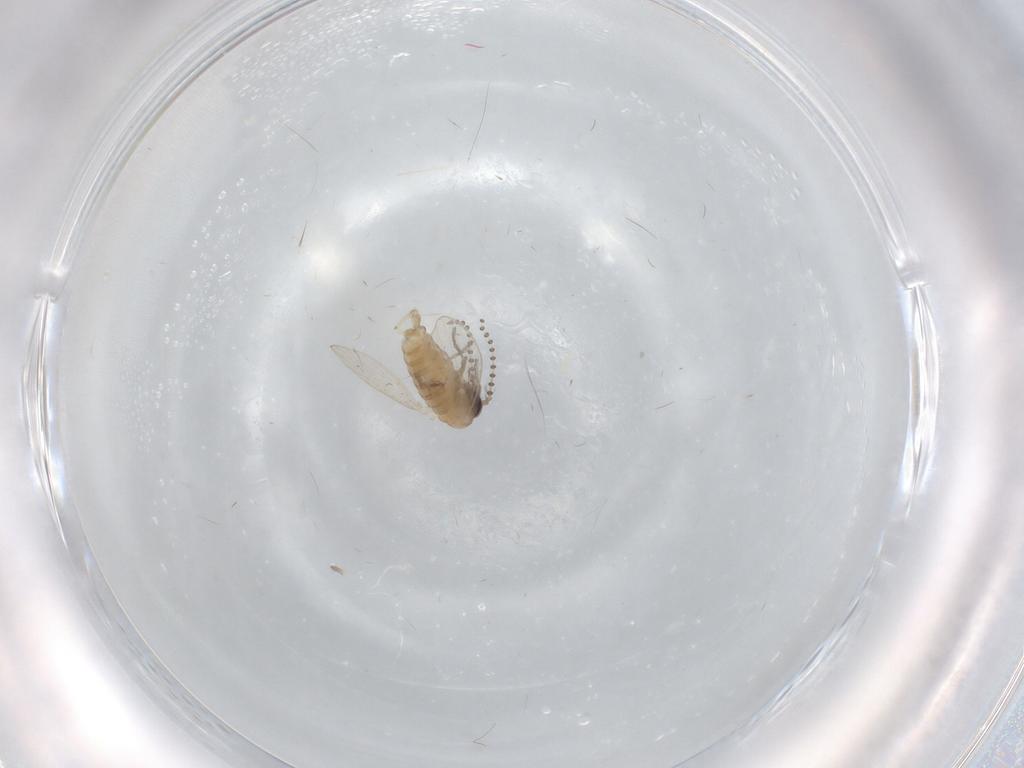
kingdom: Animalia
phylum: Arthropoda
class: Insecta
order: Diptera
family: Psychodidae
